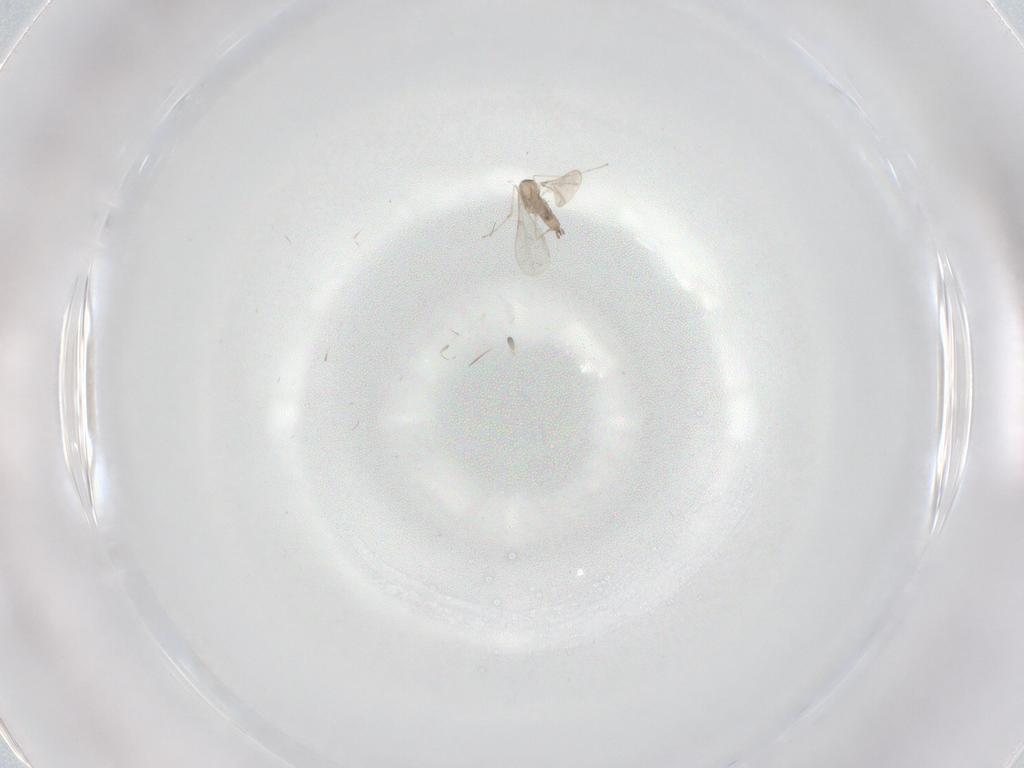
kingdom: Animalia
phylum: Arthropoda
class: Insecta
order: Diptera
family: Cecidomyiidae
